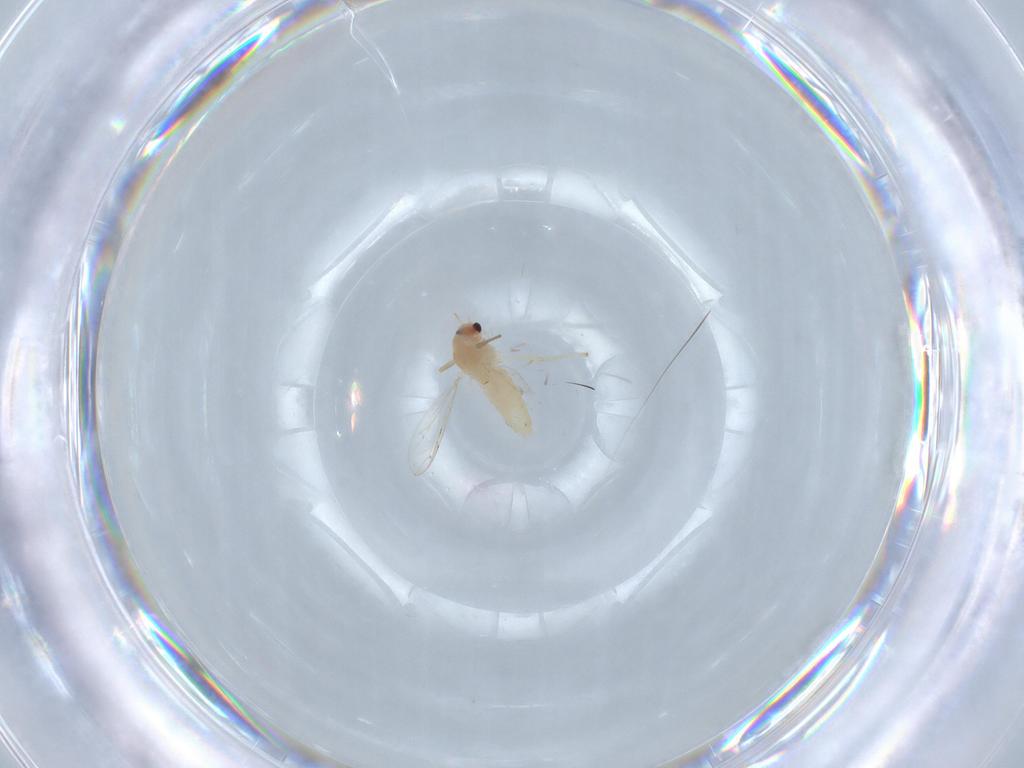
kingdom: Animalia
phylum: Arthropoda
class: Insecta
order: Diptera
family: Chironomidae
